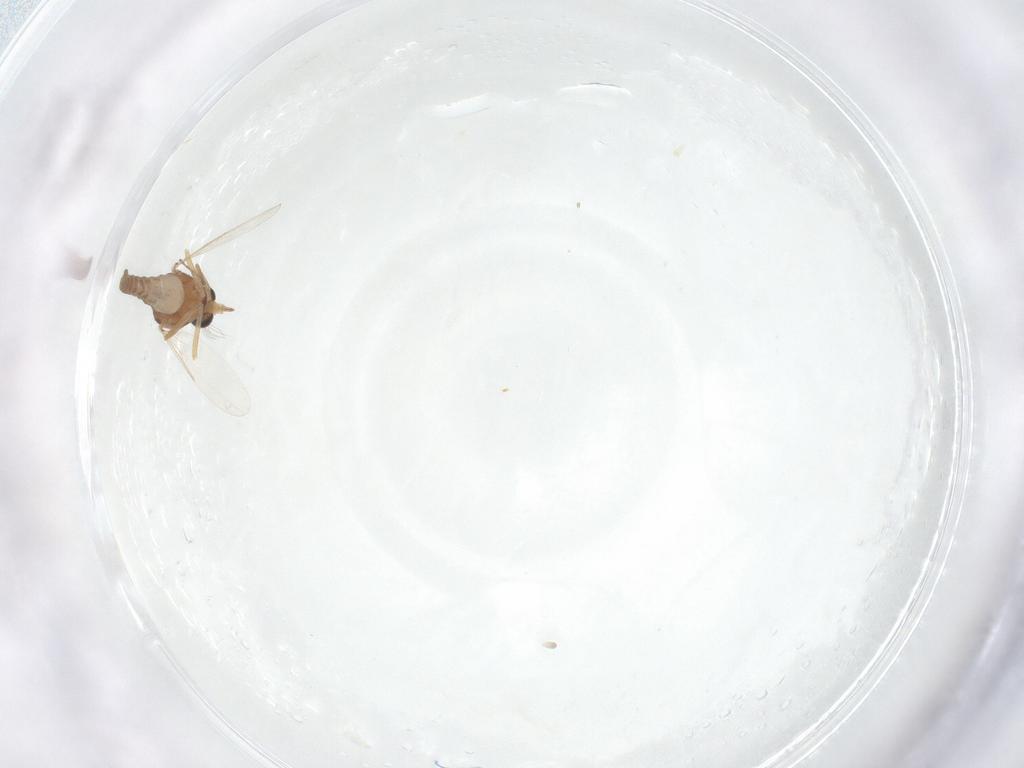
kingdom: Animalia
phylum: Arthropoda
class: Insecta
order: Diptera
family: Ceratopogonidae
